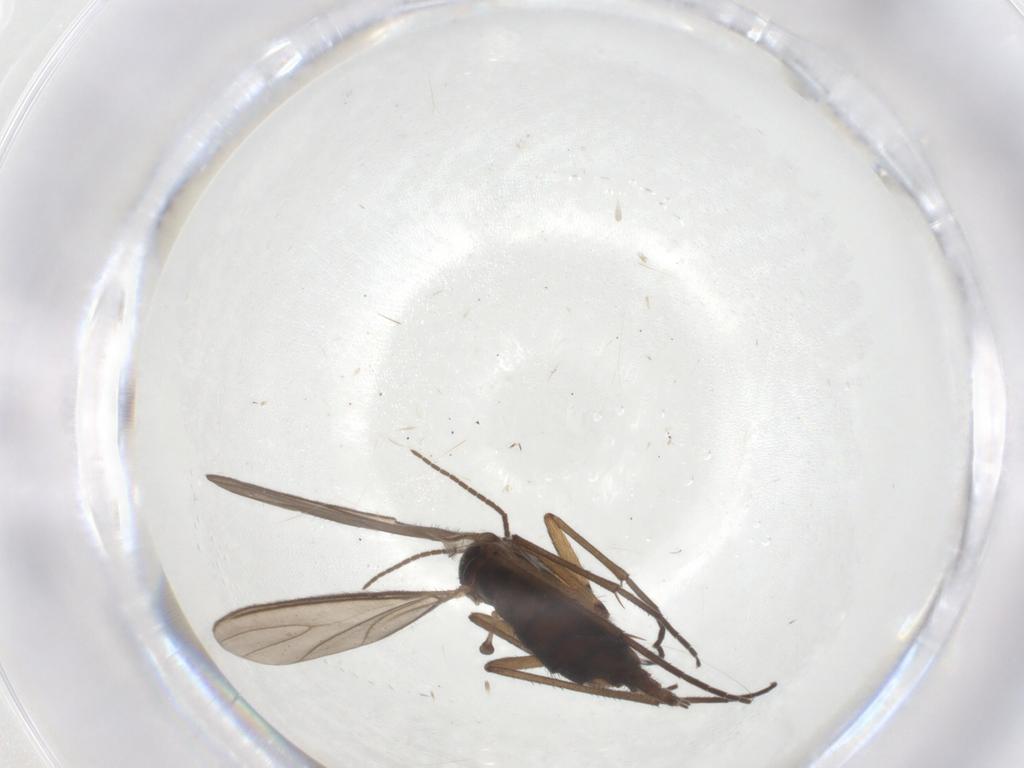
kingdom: Animalia
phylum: Arthropoda
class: Insecta
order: Diptera
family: Sciaridae
